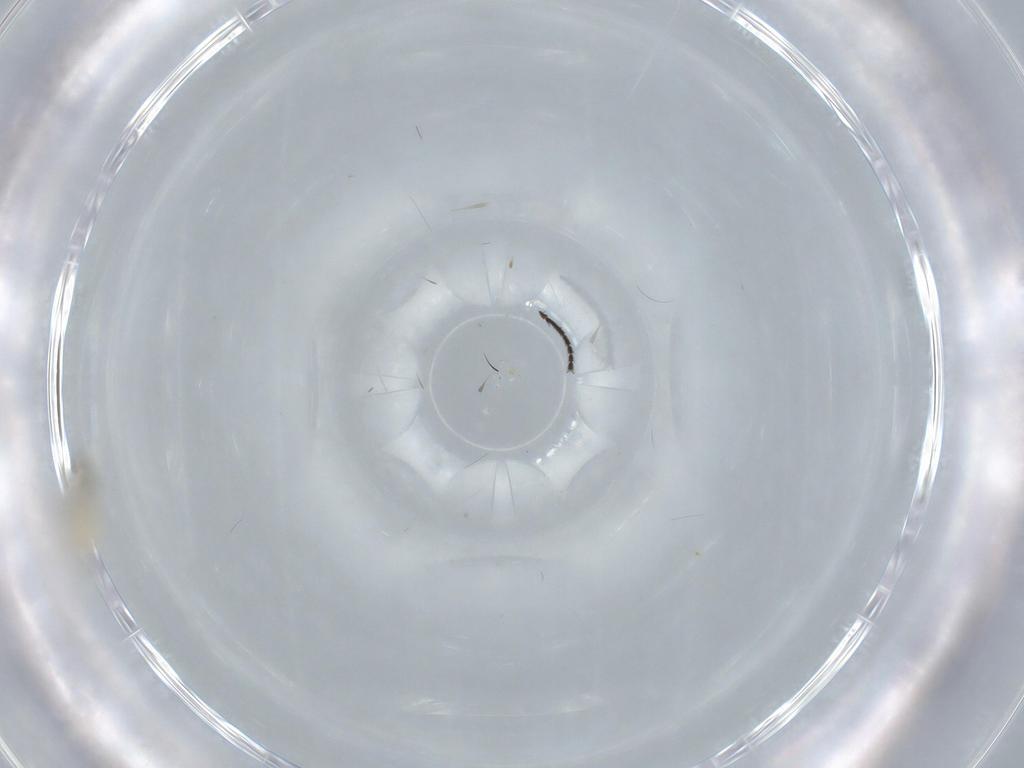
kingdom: Animalia
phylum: Arthropoda
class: Insecta
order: Diptera
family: Milichiidae
